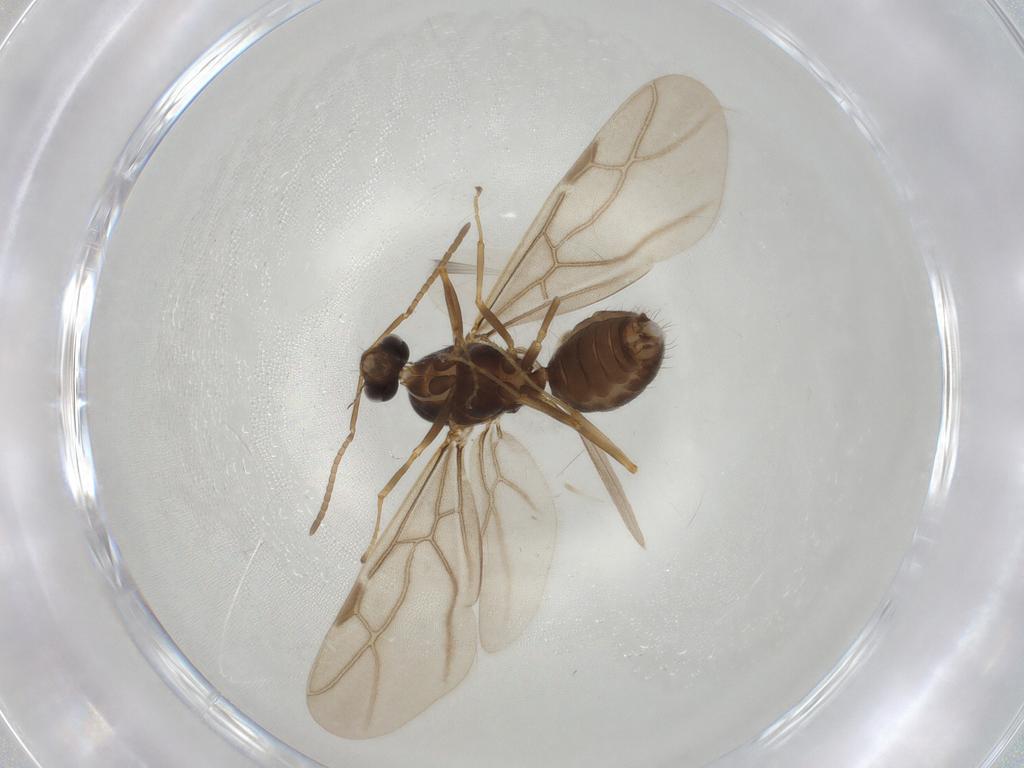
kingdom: Animalia
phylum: Arthropoda
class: Insecta
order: Hymenoptera
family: Formicidae
